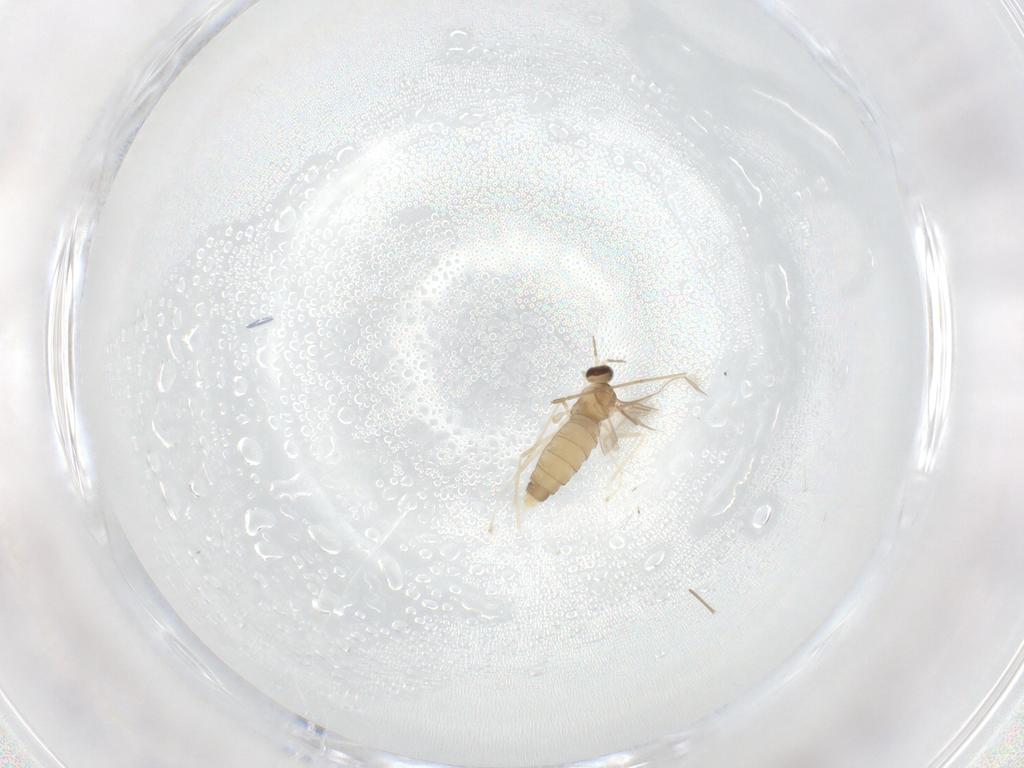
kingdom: Animalia
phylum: Arthropoda
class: Insecta
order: Diptera
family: Cecidomyiidae
